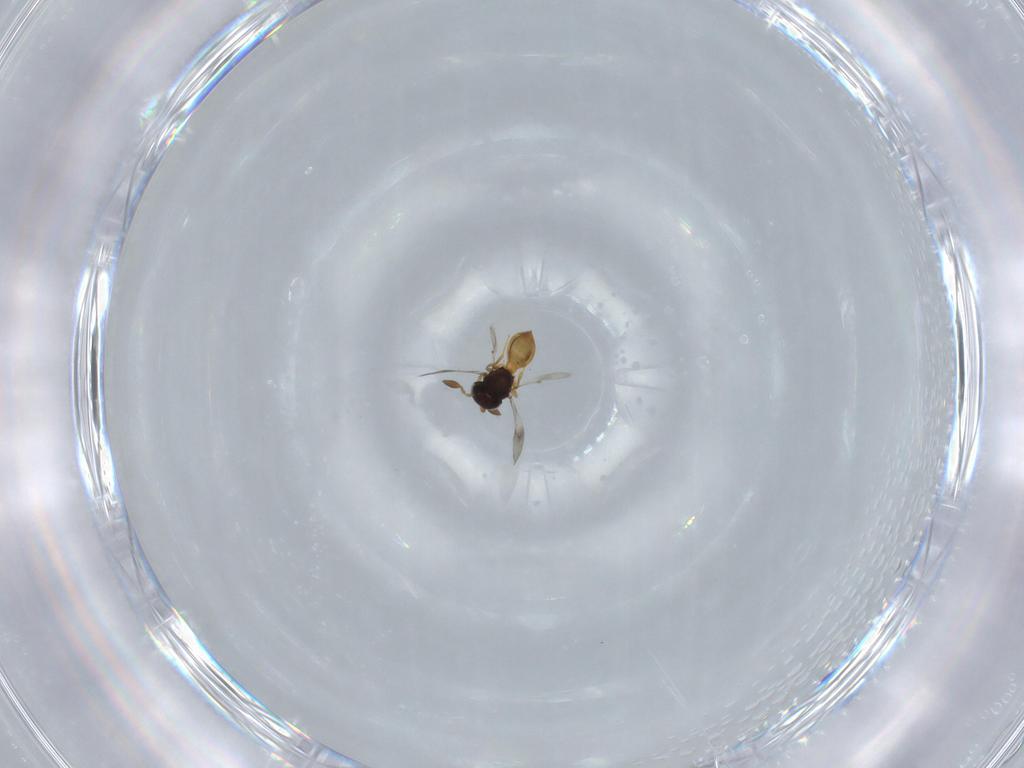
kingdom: Animalia
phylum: Arthropoda
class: Insecta
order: Hymenoptera
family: Scelionidae
